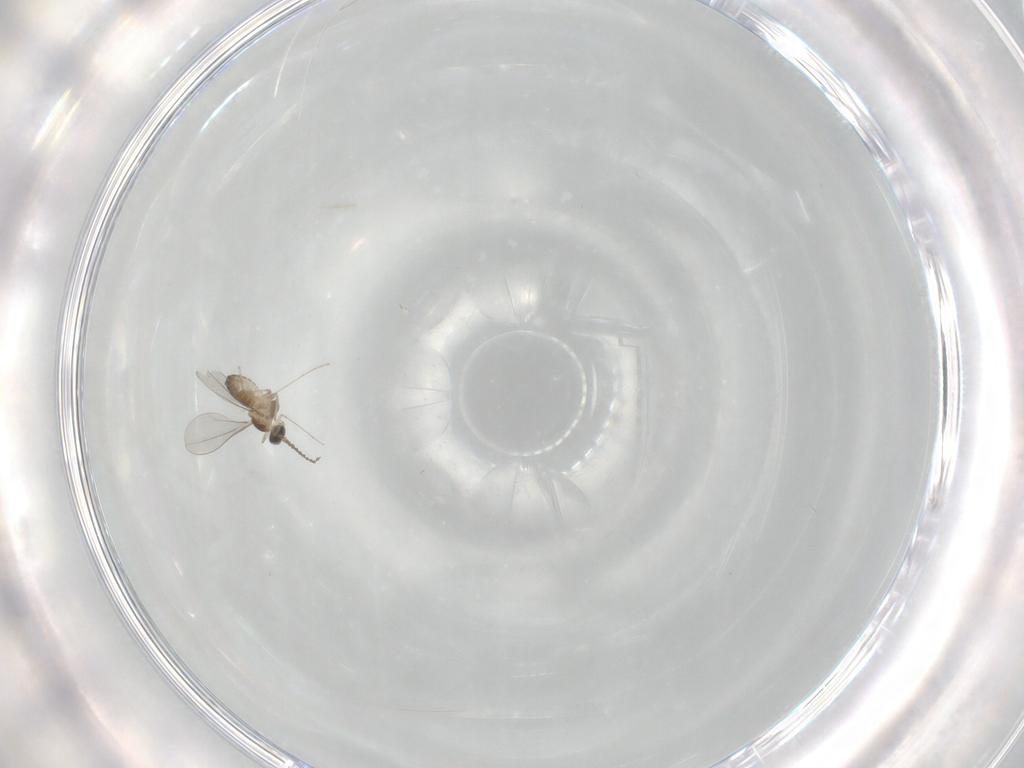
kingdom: Animalia
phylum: Arthropoda
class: Insecta
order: Diptera
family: Cecidomyiidae
